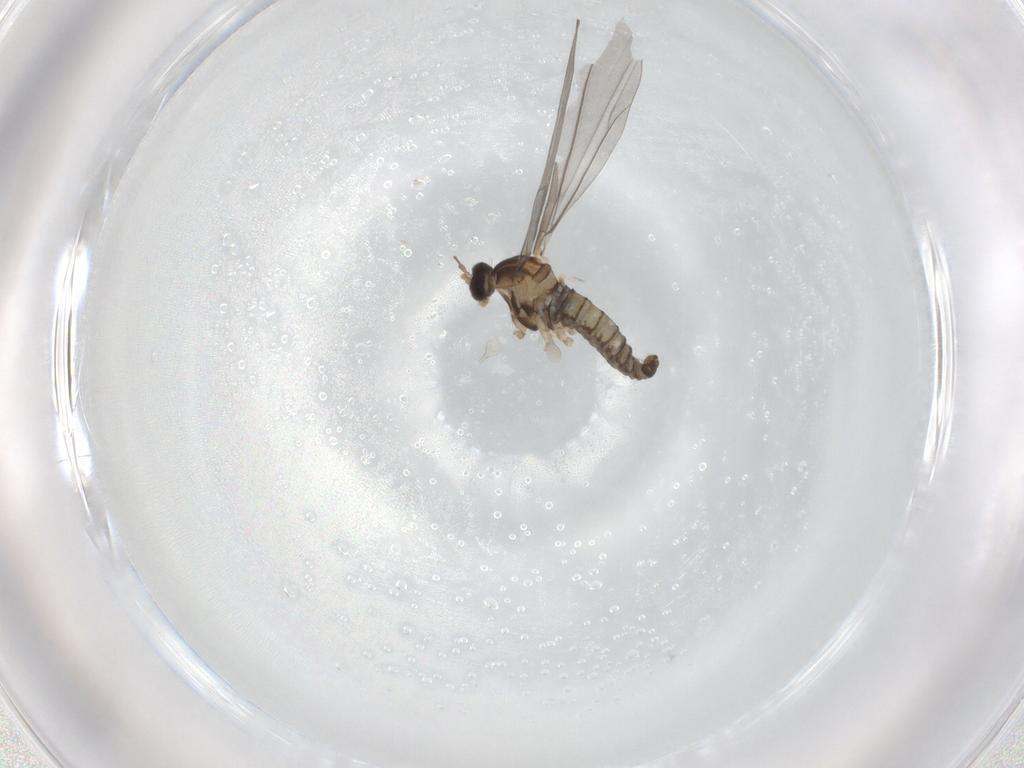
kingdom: Animalia
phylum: Arthropoda
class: Insecta
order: Diptera
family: Cecidomyiidae
